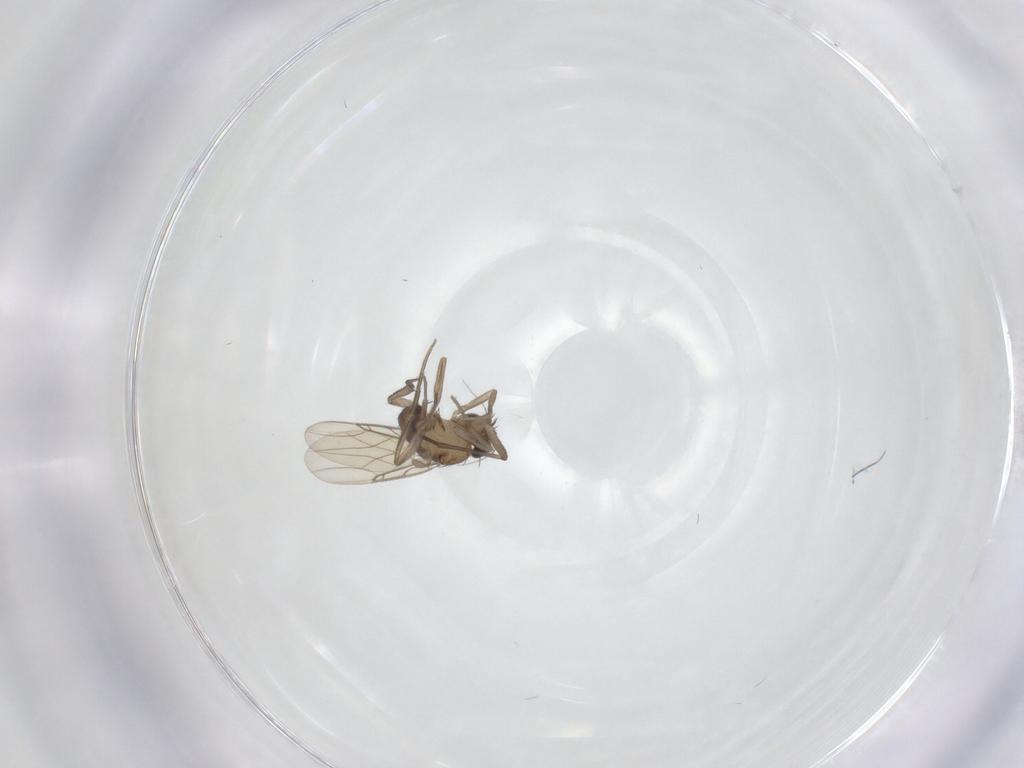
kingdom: Animalia
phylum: Arthropoda
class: Insecta
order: Diptera
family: Phoridae
